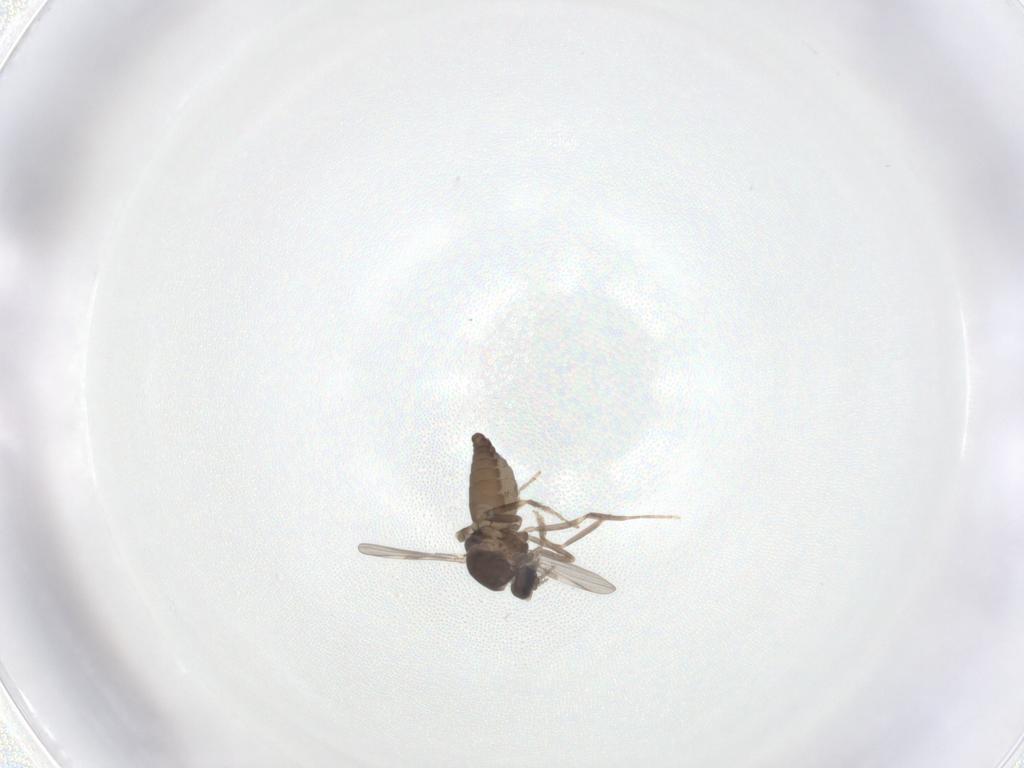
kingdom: Animalia
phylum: Arthropoda
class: Insecta
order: Diptera
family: Ceratopogonidae
